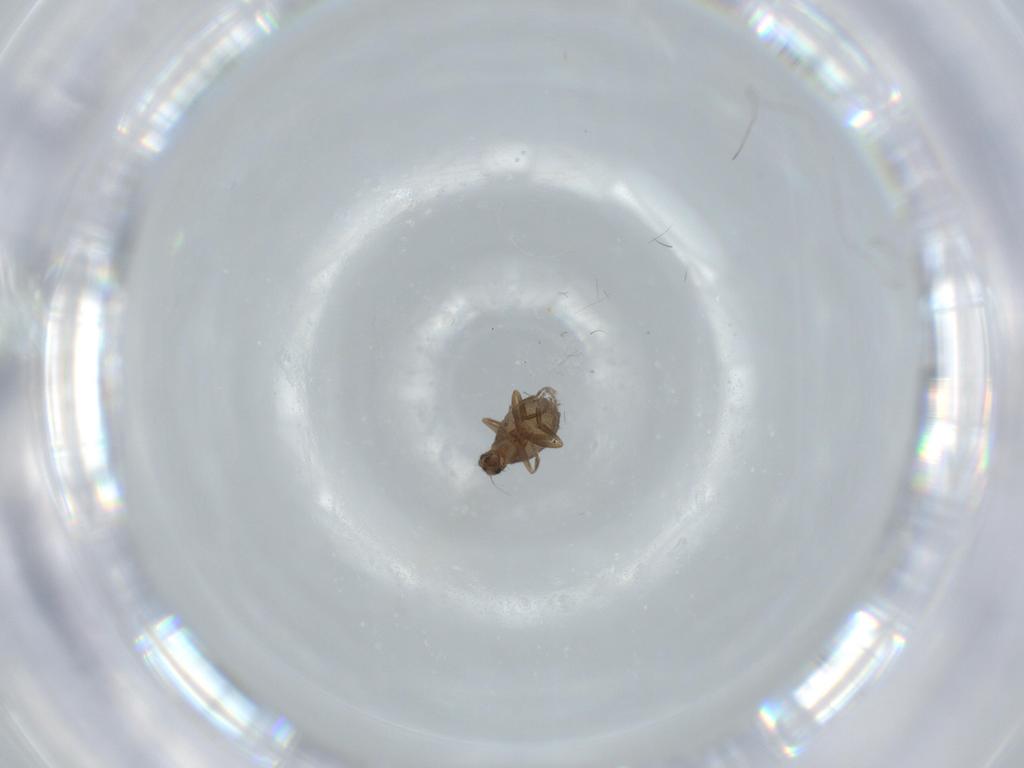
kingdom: Animalia
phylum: Arthropoda
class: Insecta
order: Diptera
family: Phoridae
